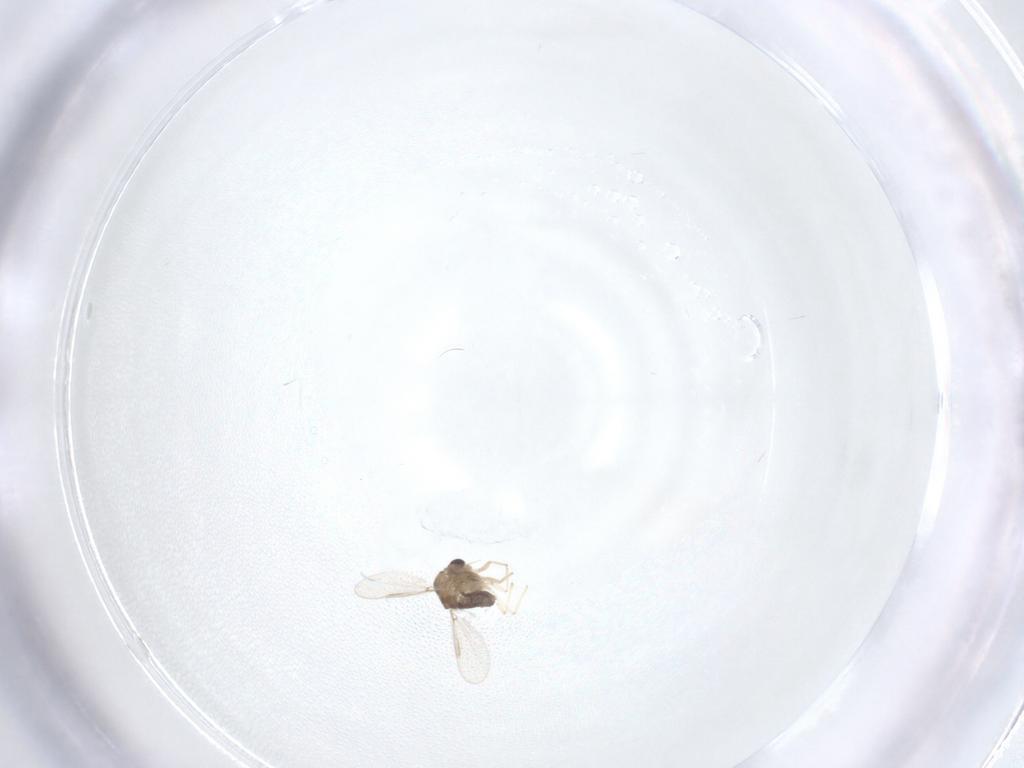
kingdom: Animalia
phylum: Arthropoda
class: Insecta
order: Diptera
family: Chironomidae
